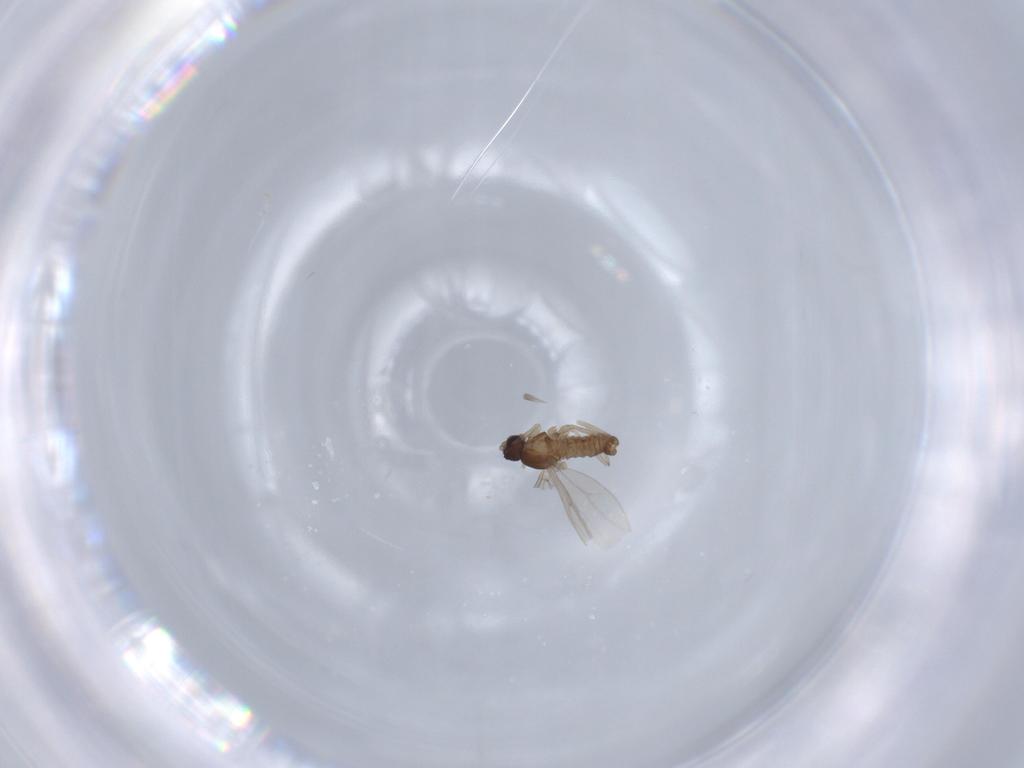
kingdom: Animalia
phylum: Arthropoda
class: Insecta
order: Diptera
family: Cecidomyiidae
